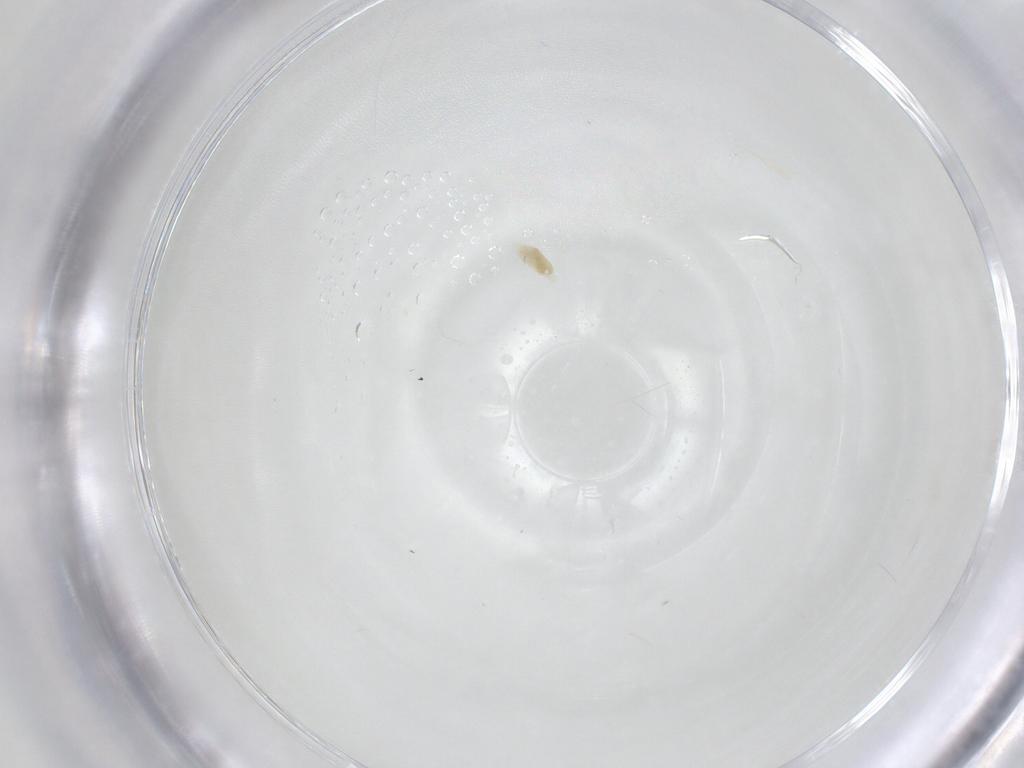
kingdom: Animalia
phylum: Arthropoda
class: Arachnida
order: Trombidiformes
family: Eupodidae
